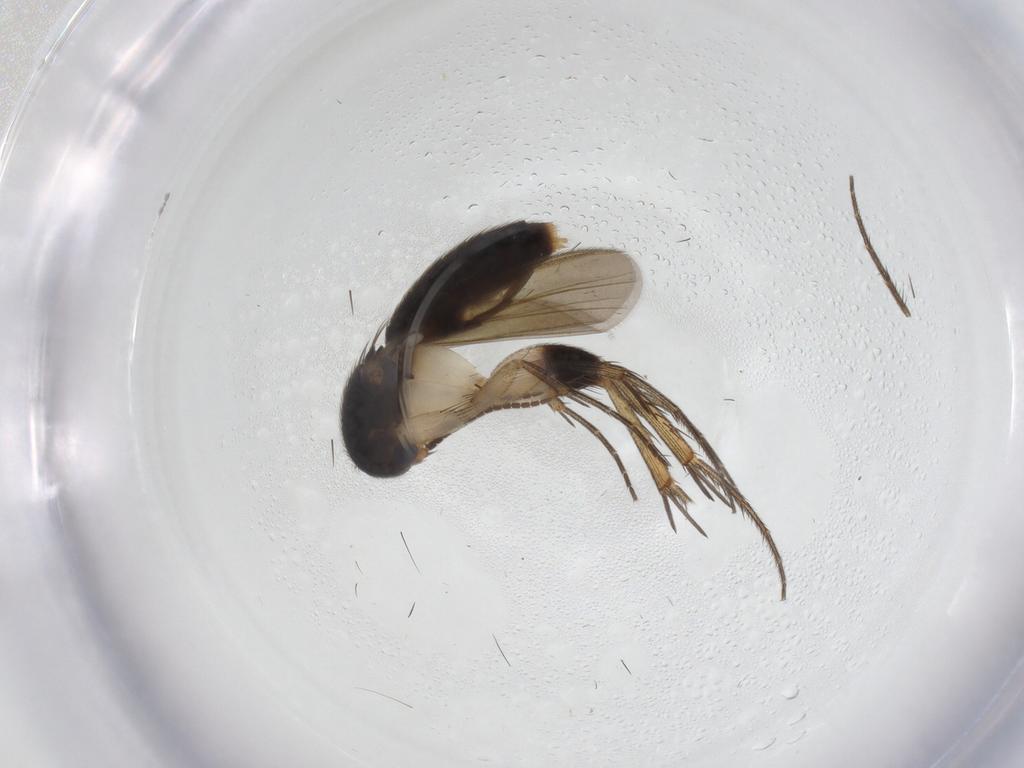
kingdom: Animalia
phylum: Arthropoda
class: Insecta
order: Diptera
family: Mycetophilidae
